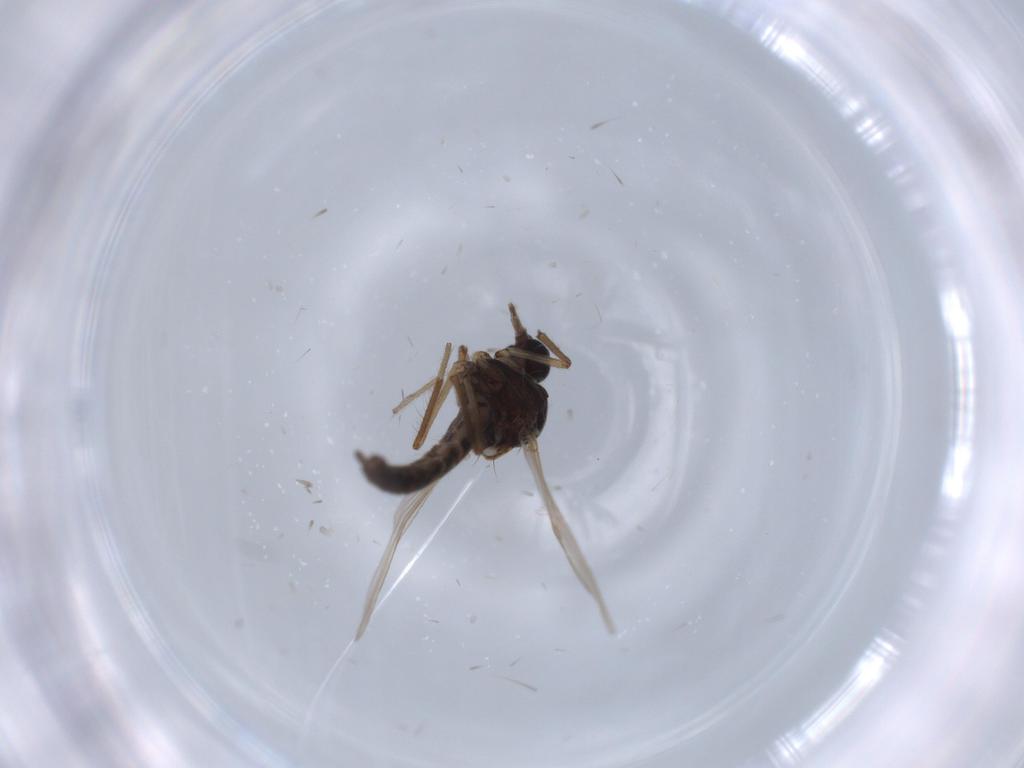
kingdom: Animalia
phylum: Arthropoda
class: Insecta
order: Diptera
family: Ceratopogonidae
